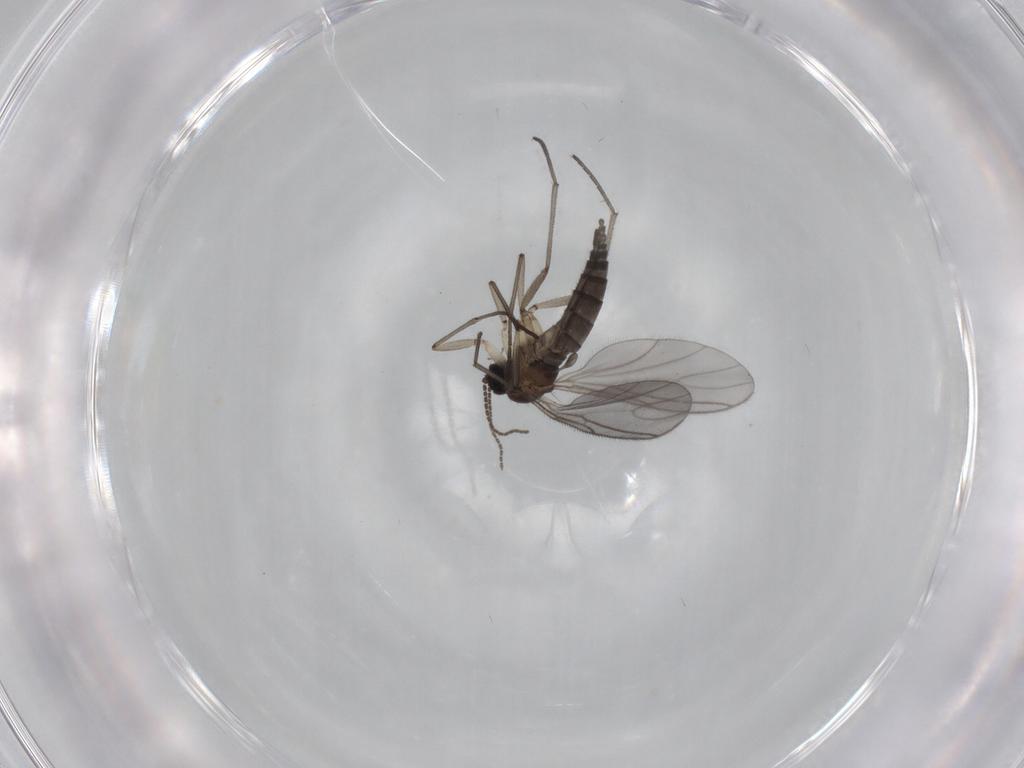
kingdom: Animalia
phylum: Arthropoda
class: Insecta
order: Diptera
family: Sciaridae
